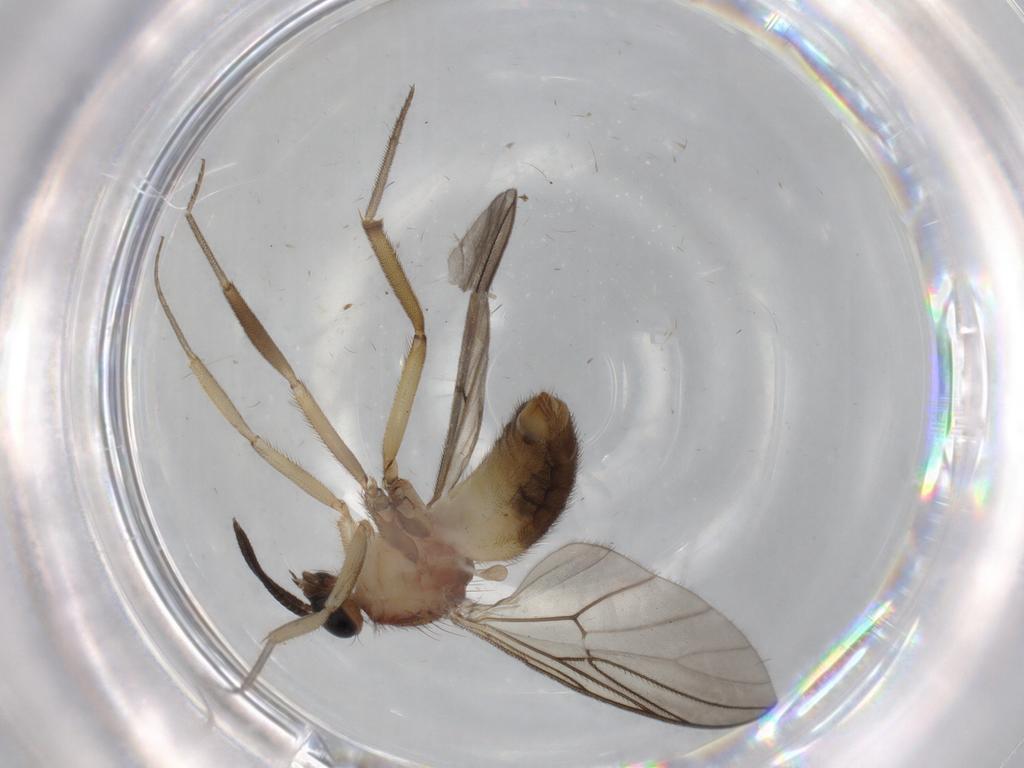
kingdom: Animalia
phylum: Arthropoda
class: Insecta
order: Diptera
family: Anisopodidae
